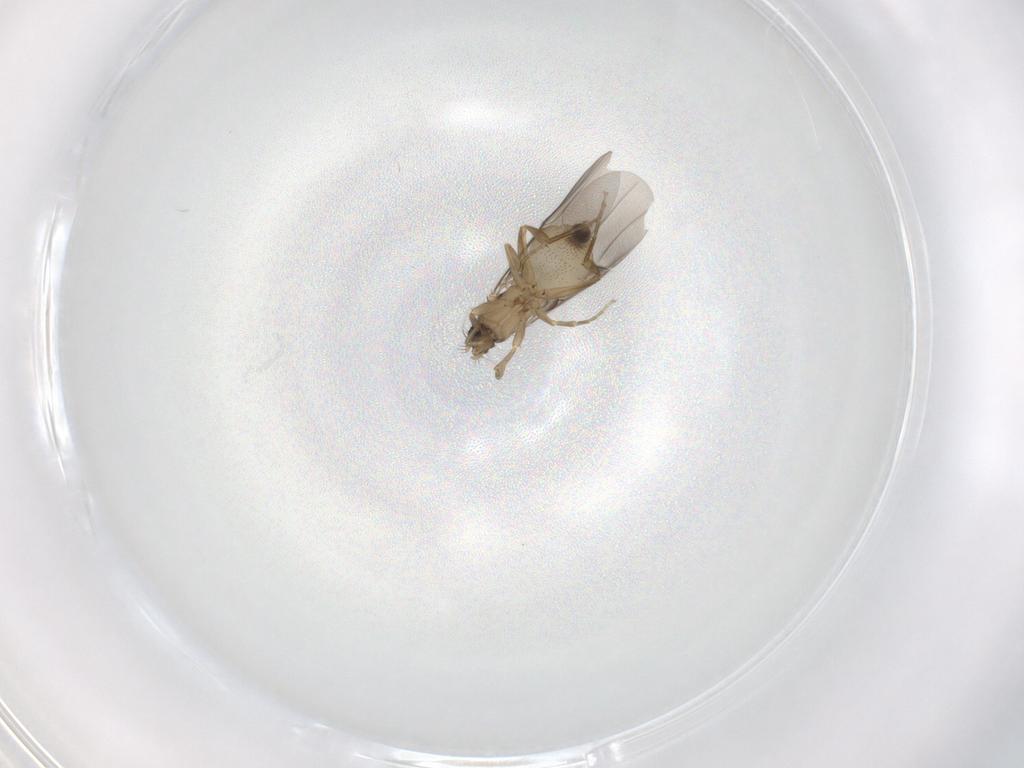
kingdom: Animalia
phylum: Arthropoda
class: Insecta
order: Diptera
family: Phoridae
